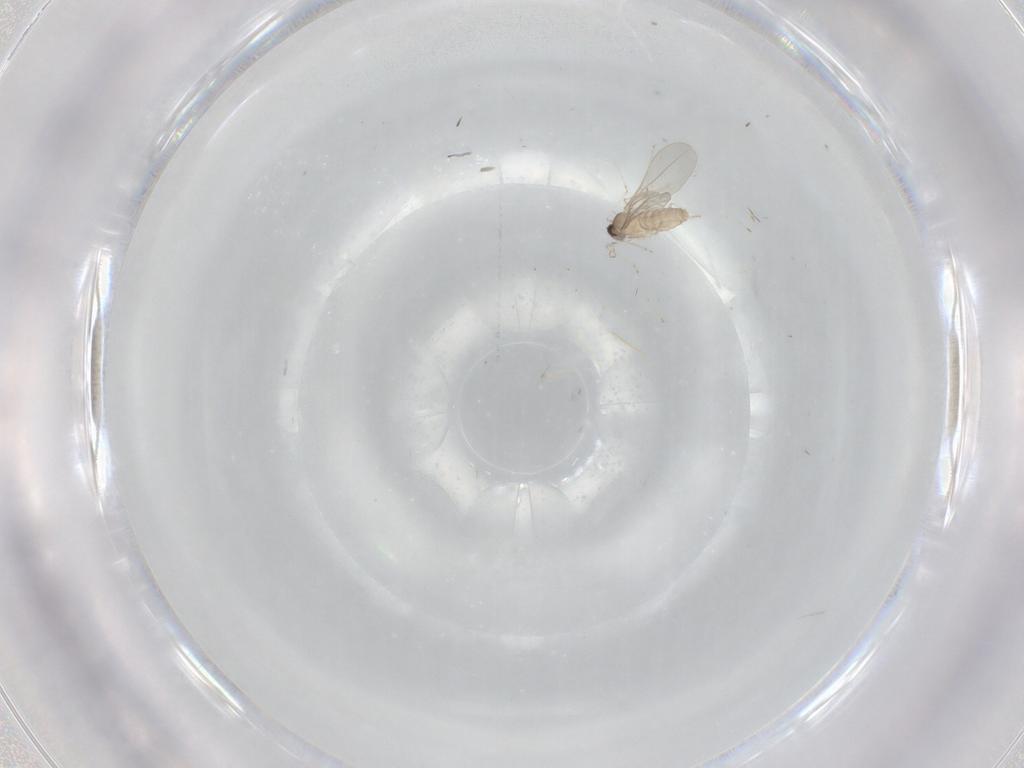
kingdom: Animalia
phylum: Arthropoda
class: Insecta
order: Diptera
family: Cecidomyiidae
